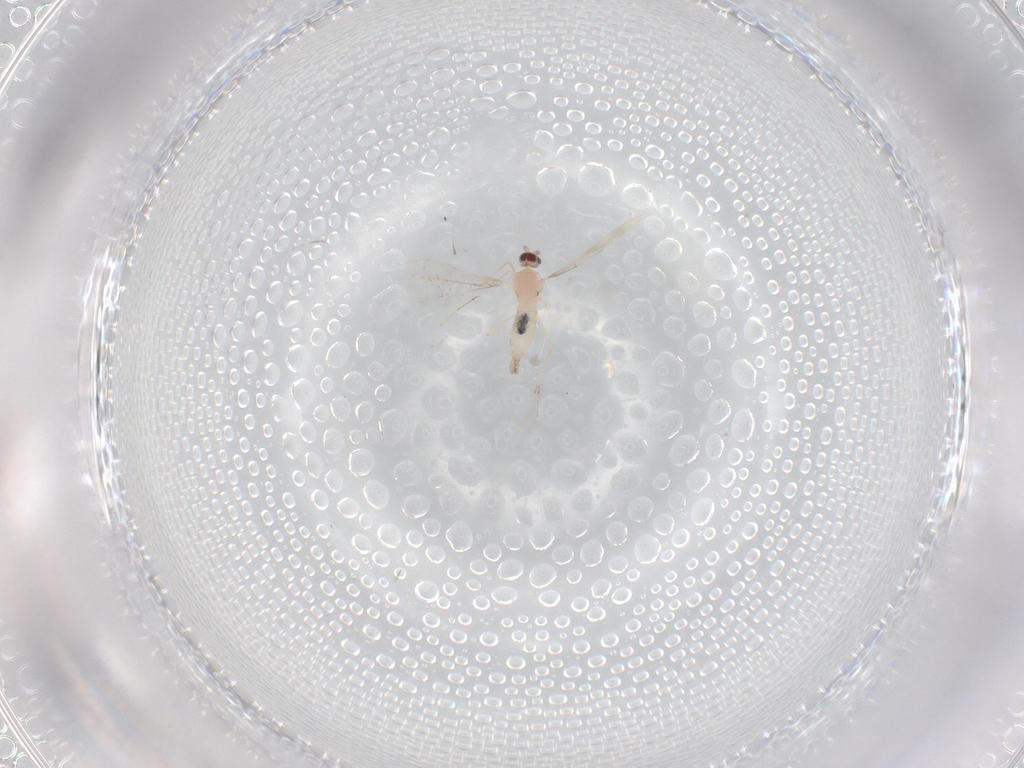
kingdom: Animalia
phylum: Arthropoda
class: Insecta
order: Diptera
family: Cecidomyiidae
